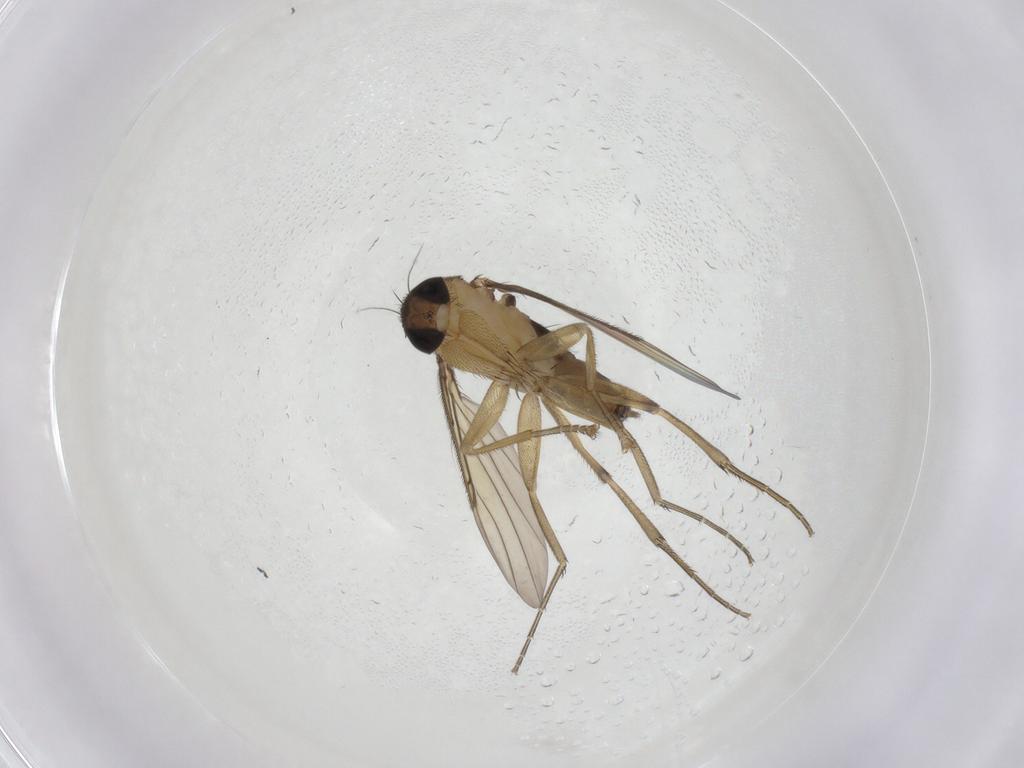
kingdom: Animalia
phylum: Arthropoda
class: Insecta
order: Diptera
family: Phoridae
